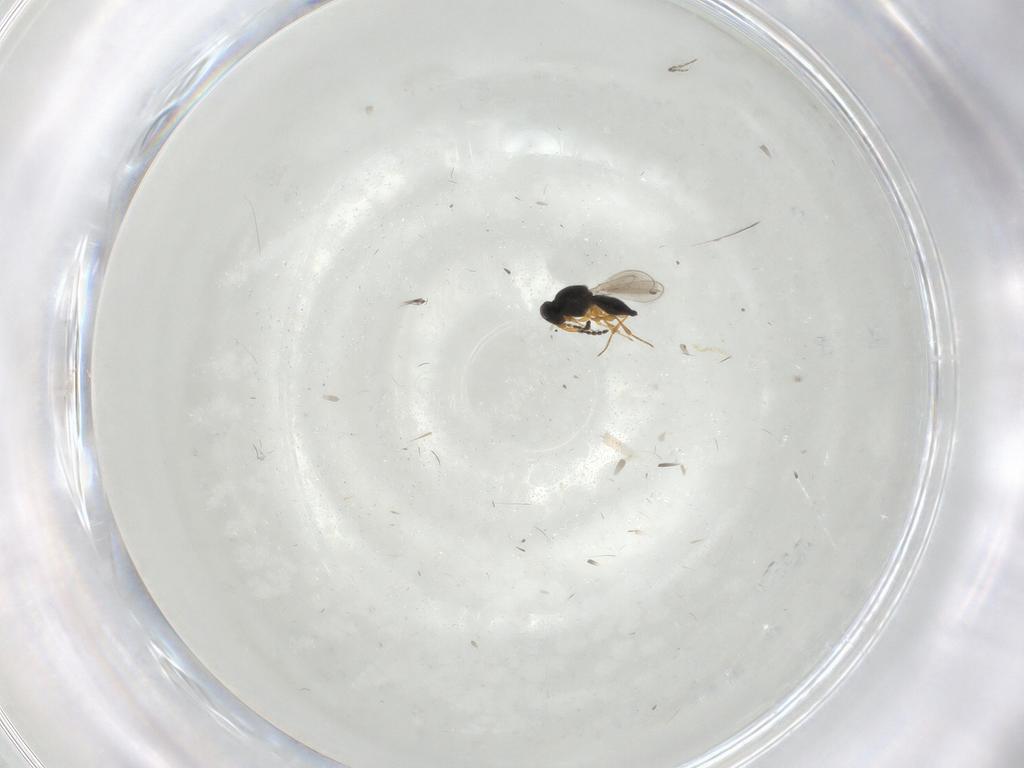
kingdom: Animalia
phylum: Arthropoda
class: Insecta
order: Hymenoptera
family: Platygastridae
